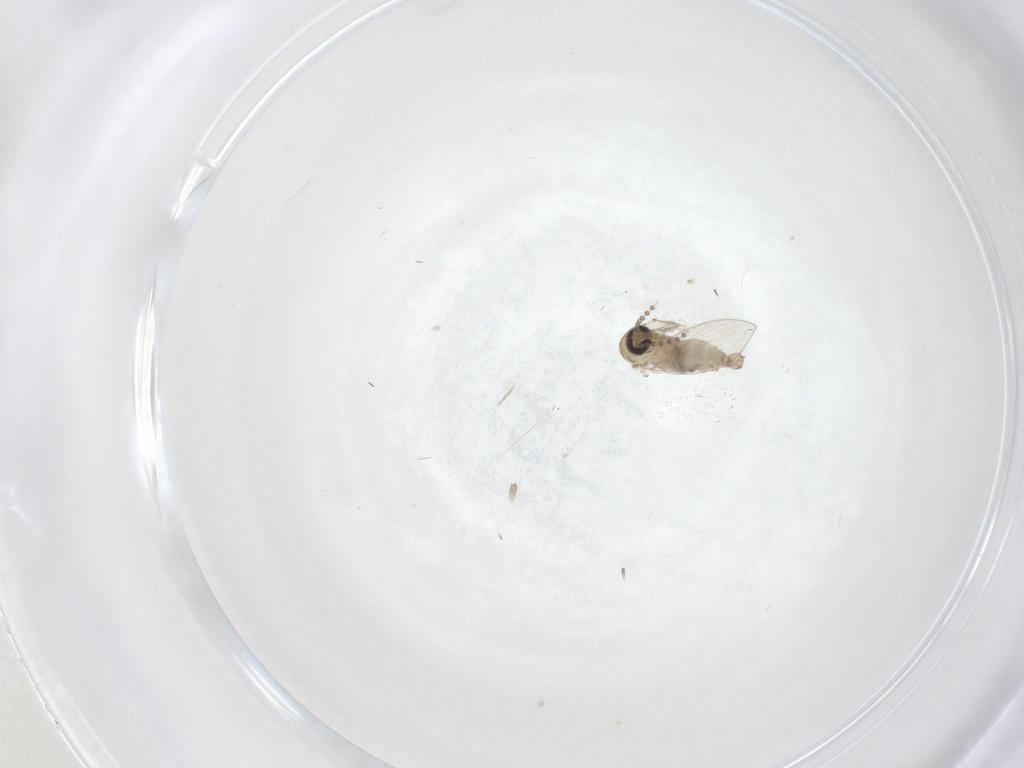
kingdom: Animalia
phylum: Arthropoda
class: Insecta
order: Diptera
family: Psychodidae
